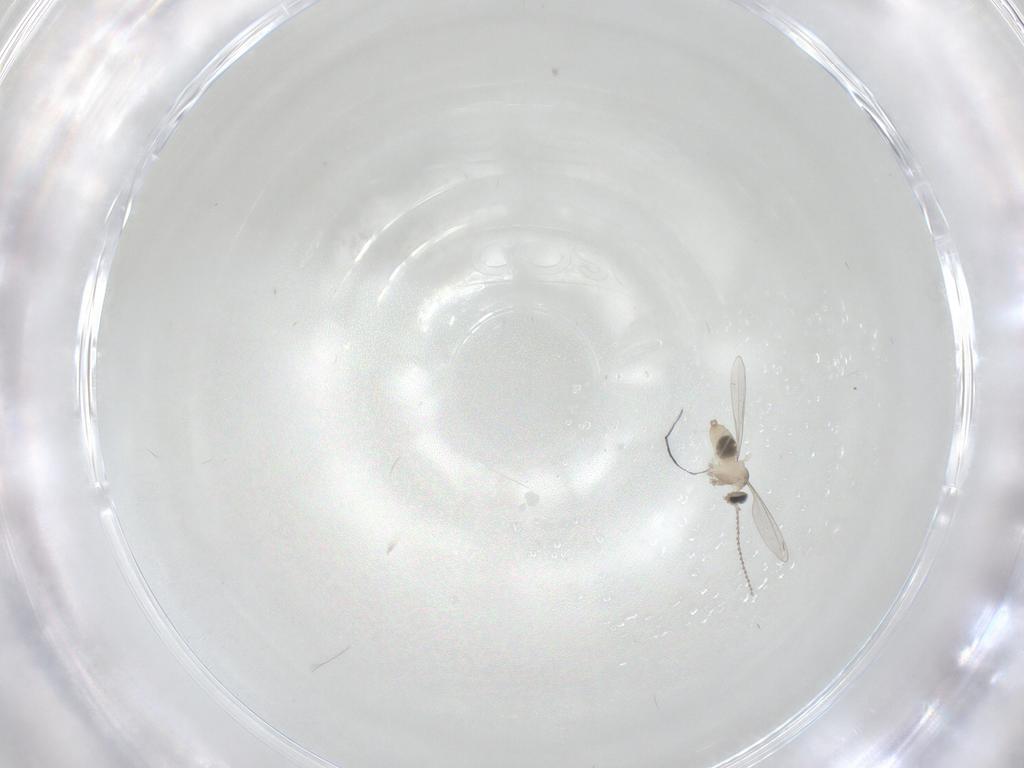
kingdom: Animalia
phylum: Arthropoda
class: Insecta
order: Diptera
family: Cecidomyiidae
